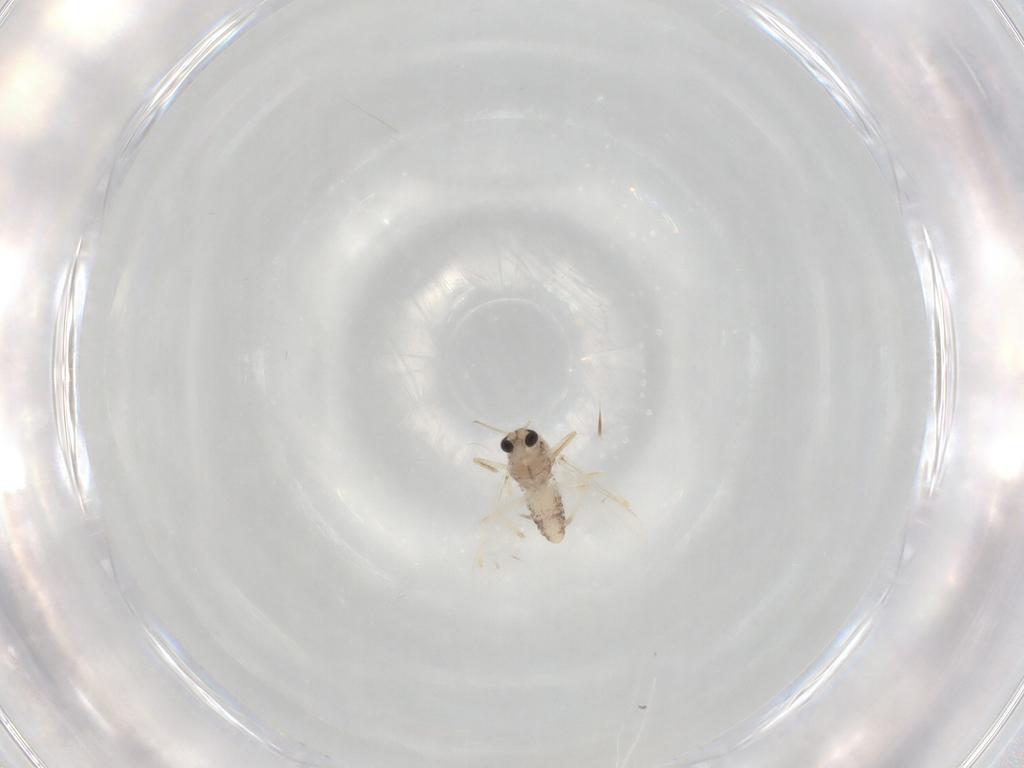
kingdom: Animalia
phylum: Arthropoda
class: Insecta
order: Diptera
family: Chironomidae
